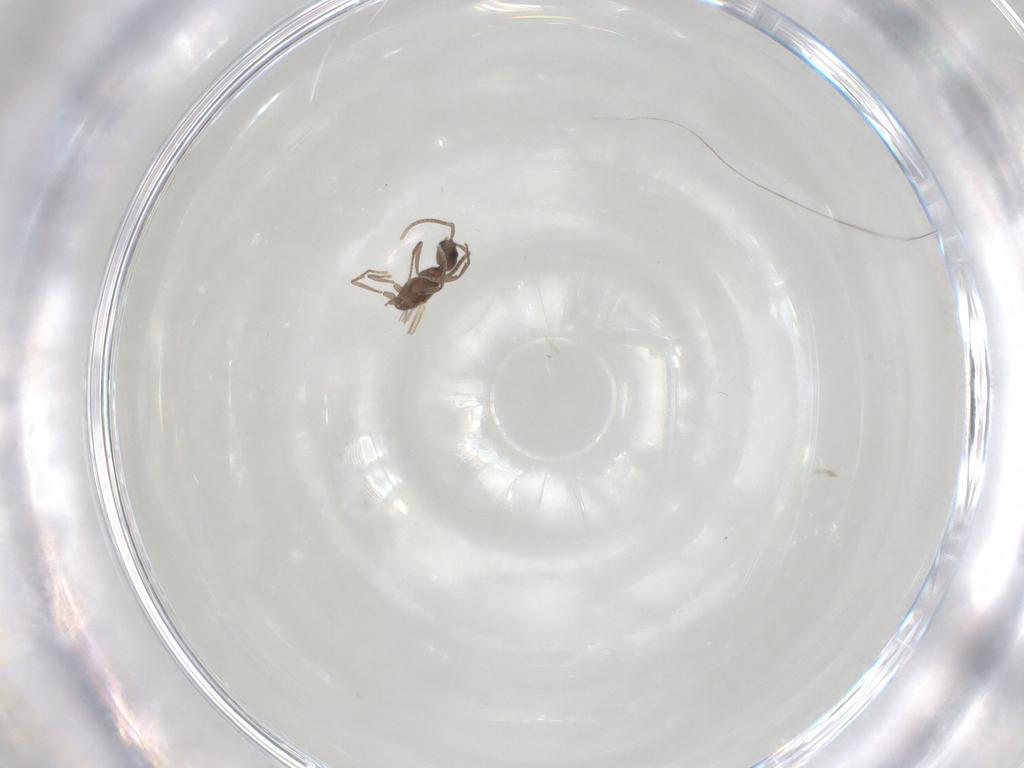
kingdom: Animalia
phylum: Arthropoda
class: Insecta
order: Hymenoptera
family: Formicidae
